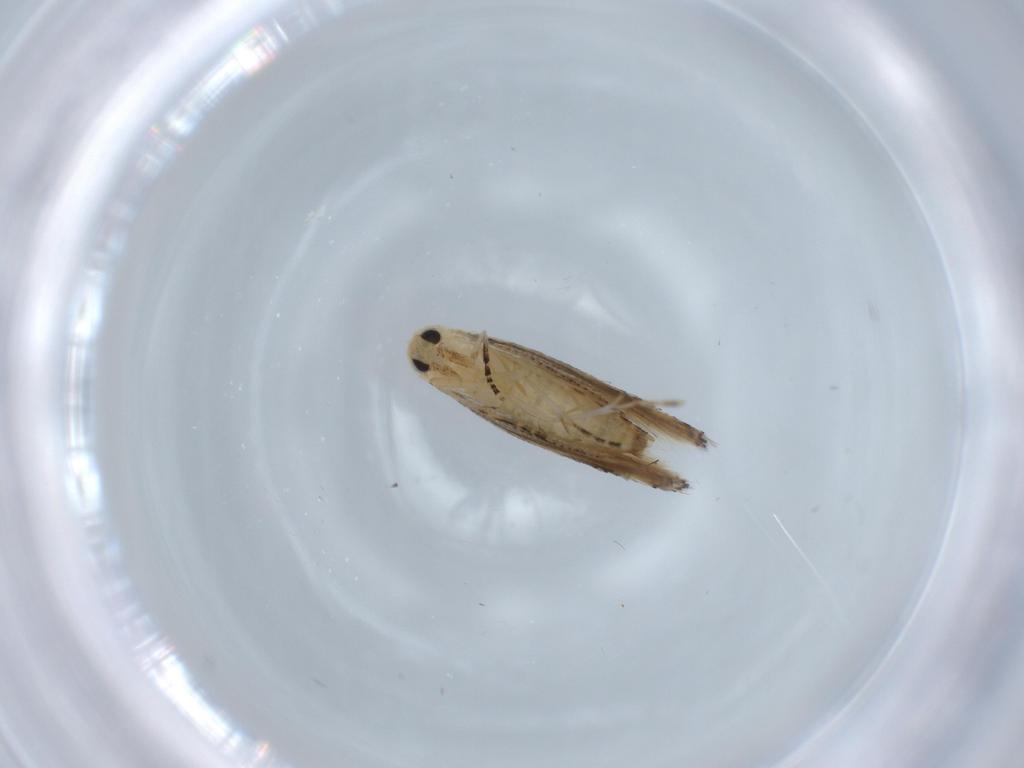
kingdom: Animalia
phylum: Arthropoda
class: Insecta
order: Lepidoptera
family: Bucculatricidae
